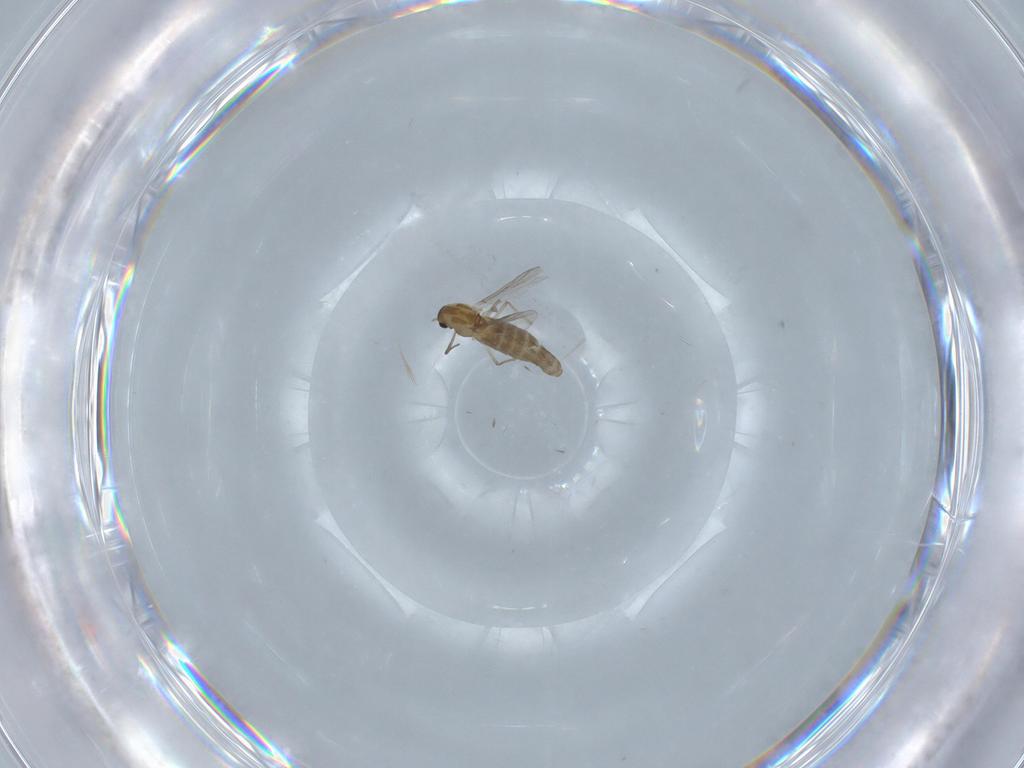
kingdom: Animalia
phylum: Arthropoda
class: Insecta
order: Diptera
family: Chironomidae
